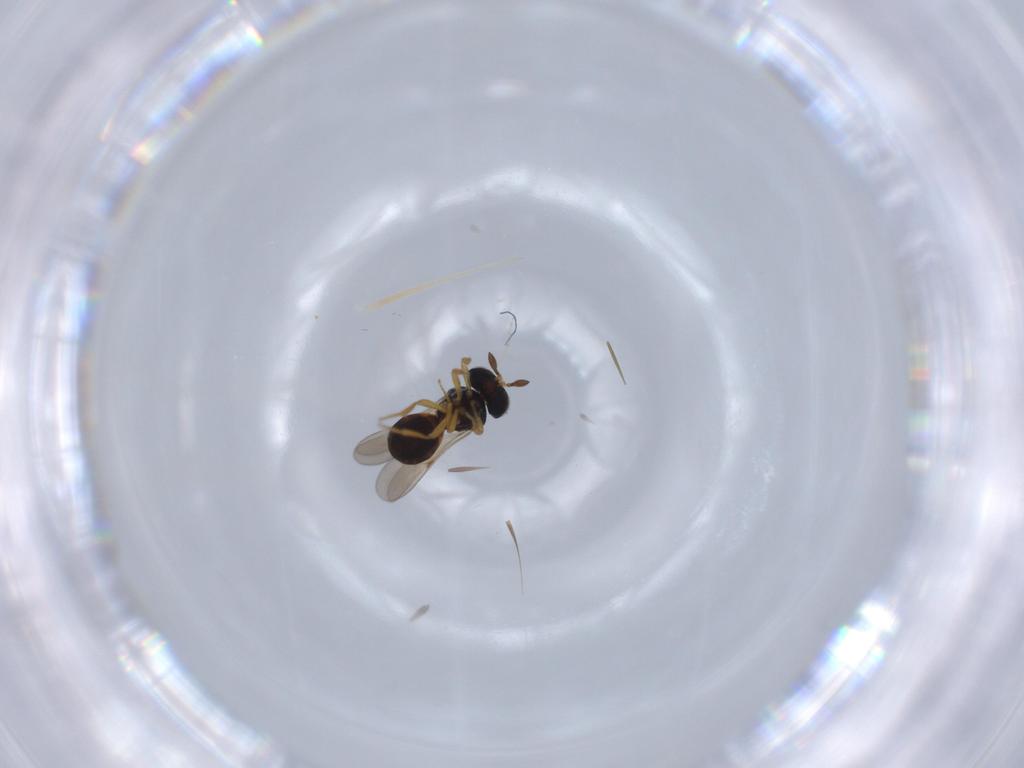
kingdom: Animalia
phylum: Arthropoda
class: Insecta
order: Hymenoptera
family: Scelionidae
